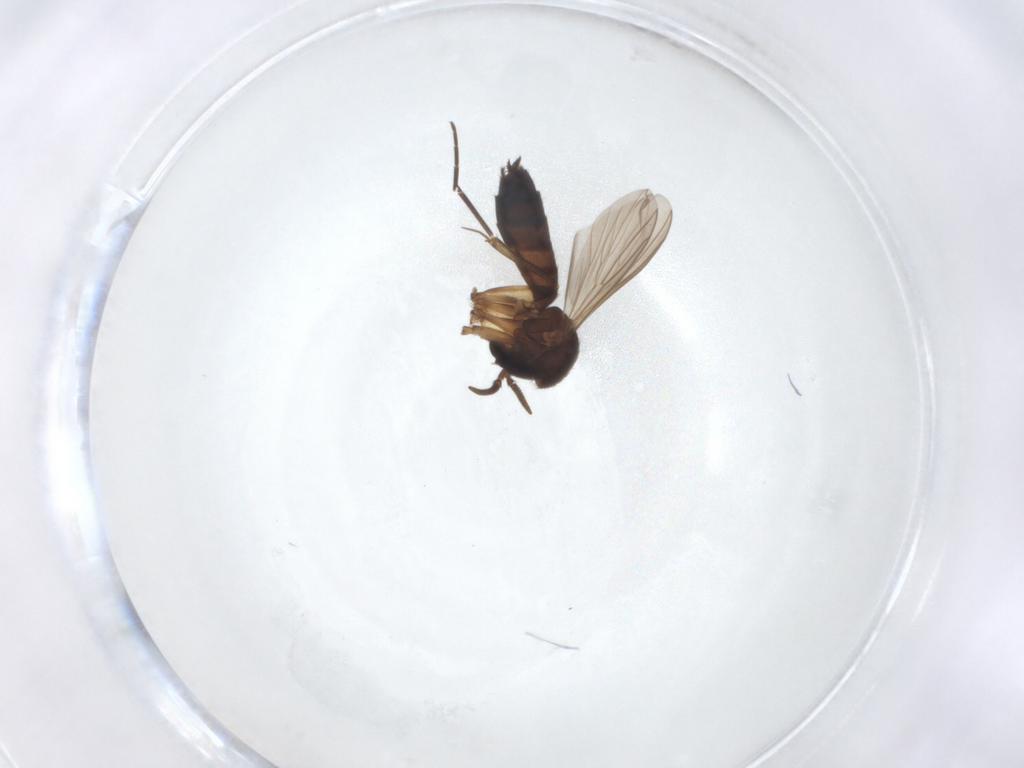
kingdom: Animalia
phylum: Arthropoda
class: Insecta
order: Diptera
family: Mycetophilidae
